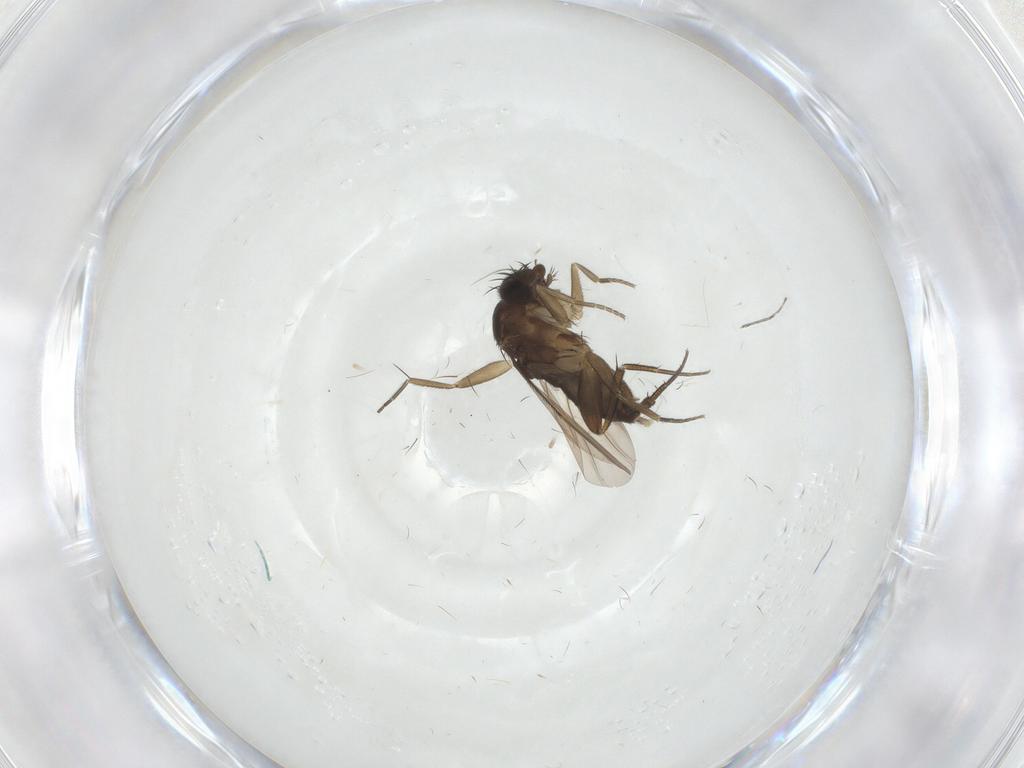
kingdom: Animalia
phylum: Arthropoda
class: Insecta
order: Diptera
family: Phoridae
